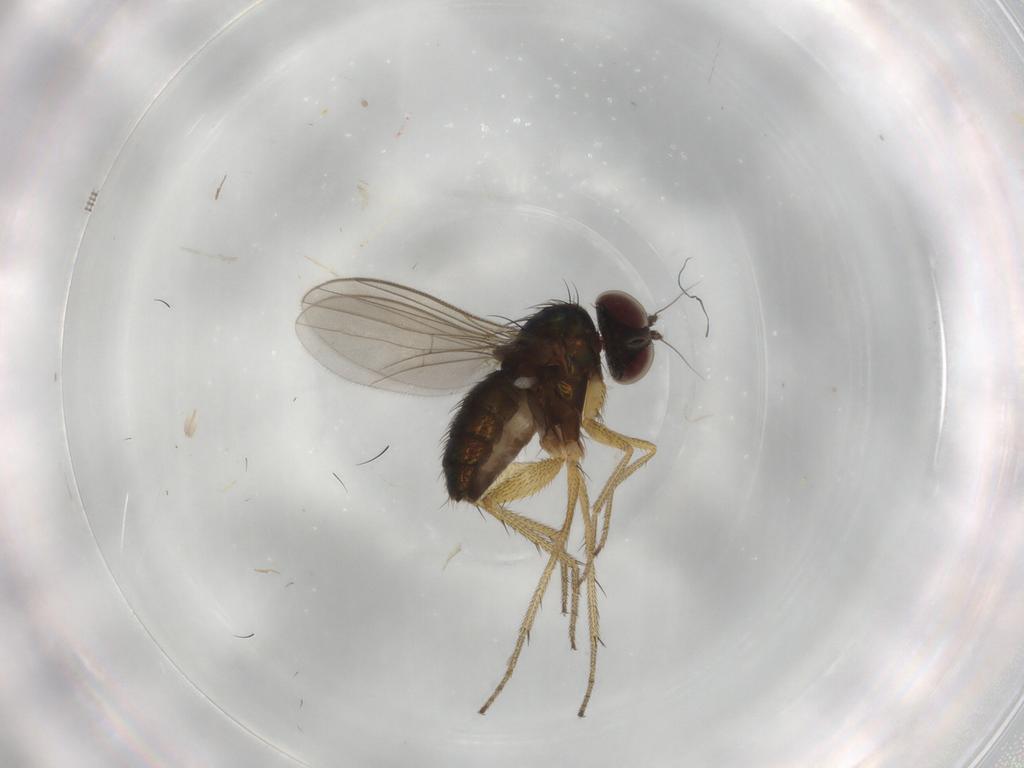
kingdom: Animalia
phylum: Arthropoda
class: Insecta
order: Diptera
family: Dolichopodidae
